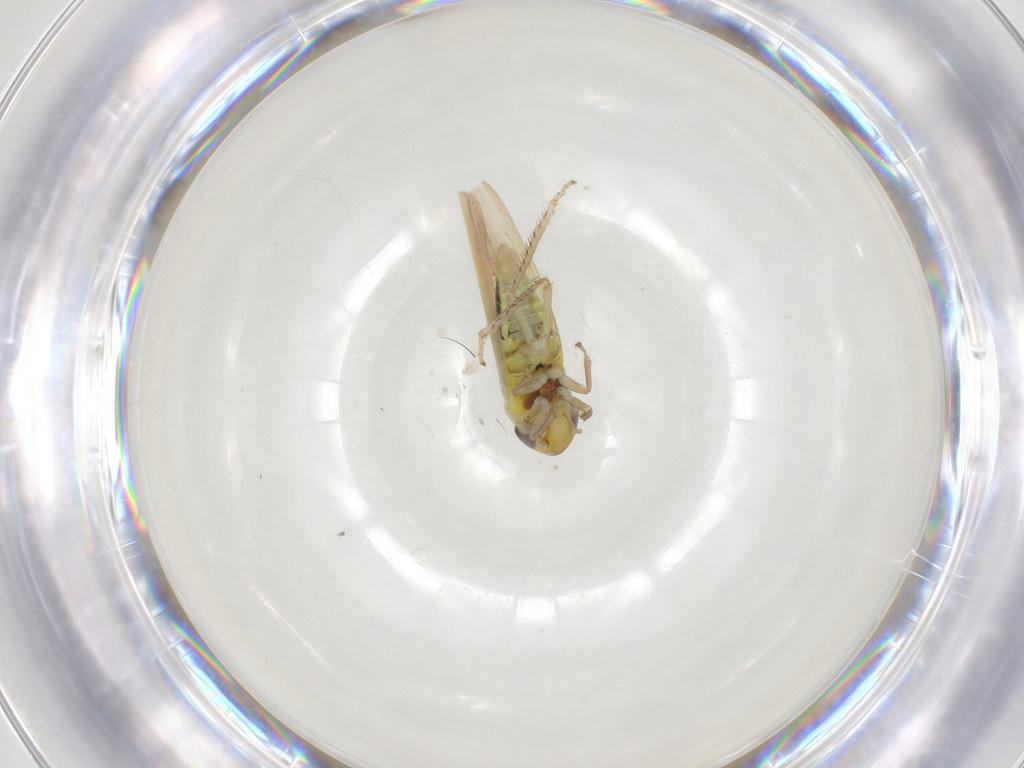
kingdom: Animalia
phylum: Arthropoda
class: Insecta
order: Hemiptera
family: Cicadellidae
